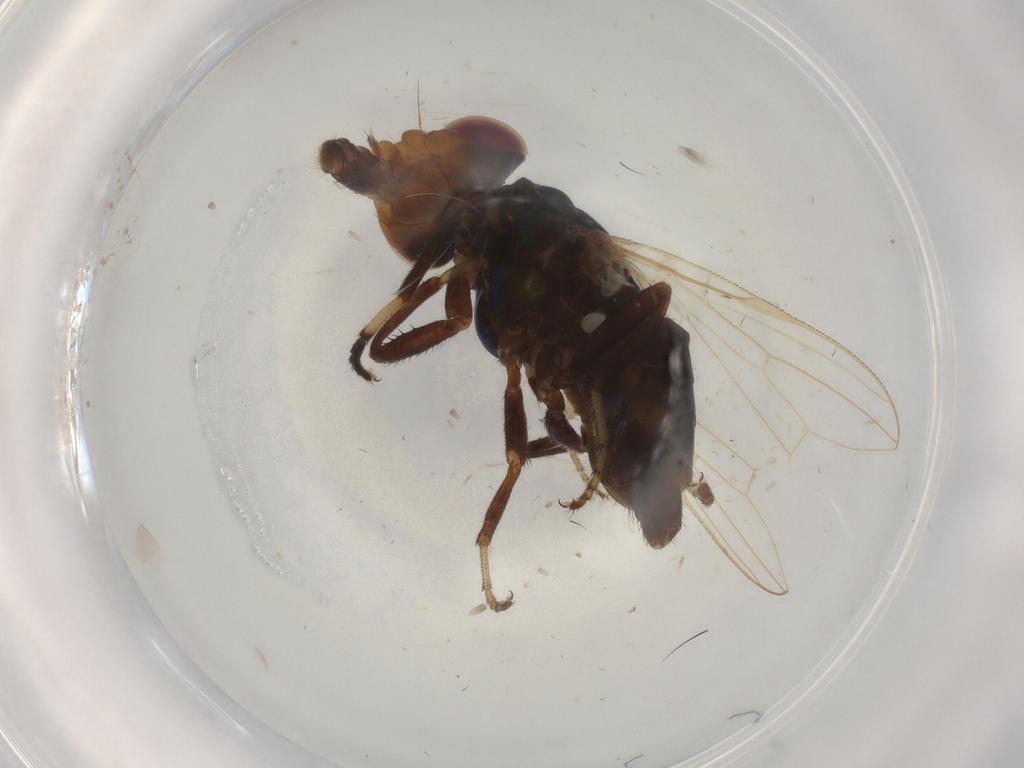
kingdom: Animalia
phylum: Arthropoda
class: Insecta
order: Diptera
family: Ulidiidae
